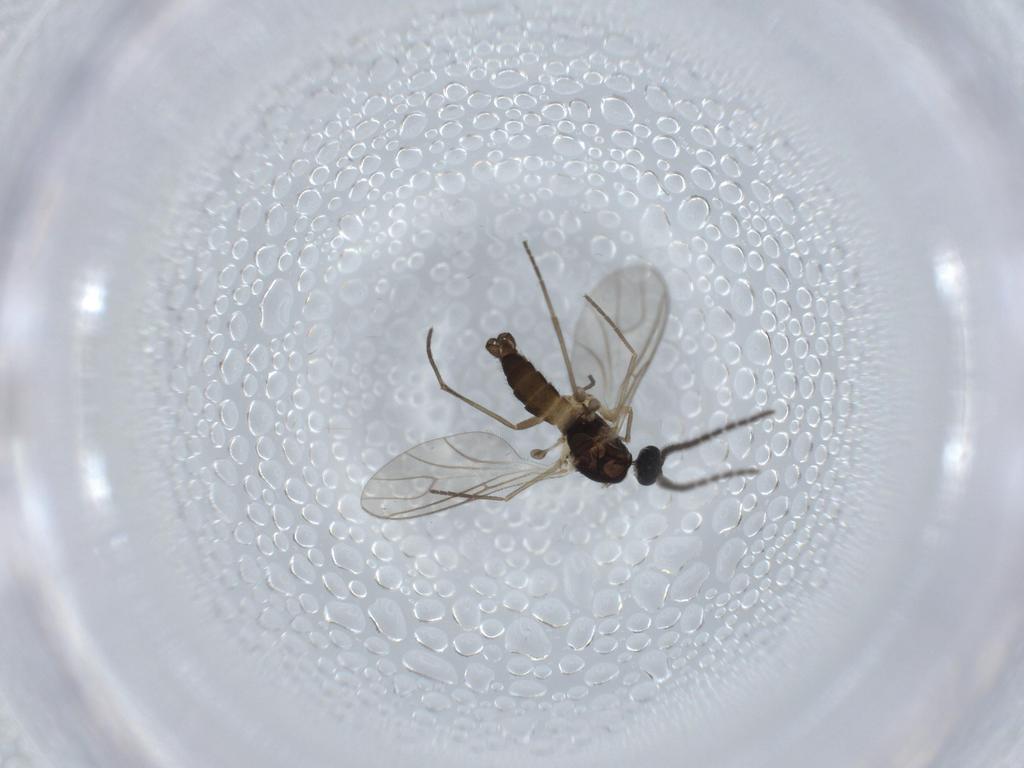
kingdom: Animalia
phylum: Arthropoda
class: Insecta
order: Diptera
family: Sciaridae
